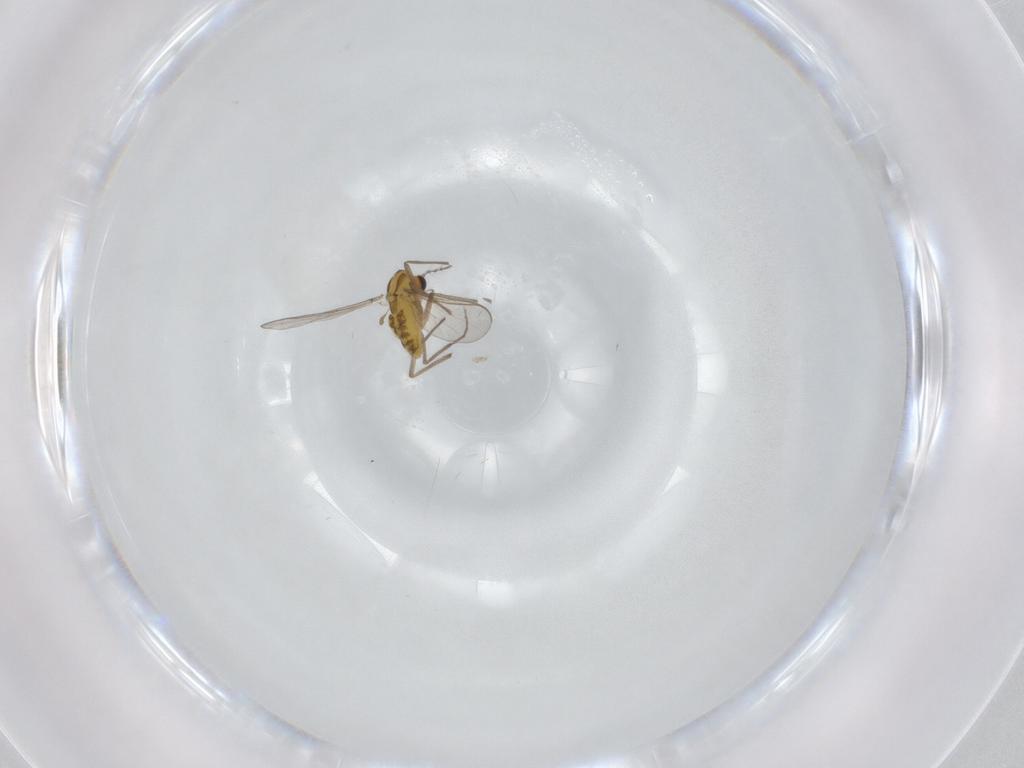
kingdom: Animalia
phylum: Arthropoda
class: Insecta
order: Diptera
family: Chironomidae
